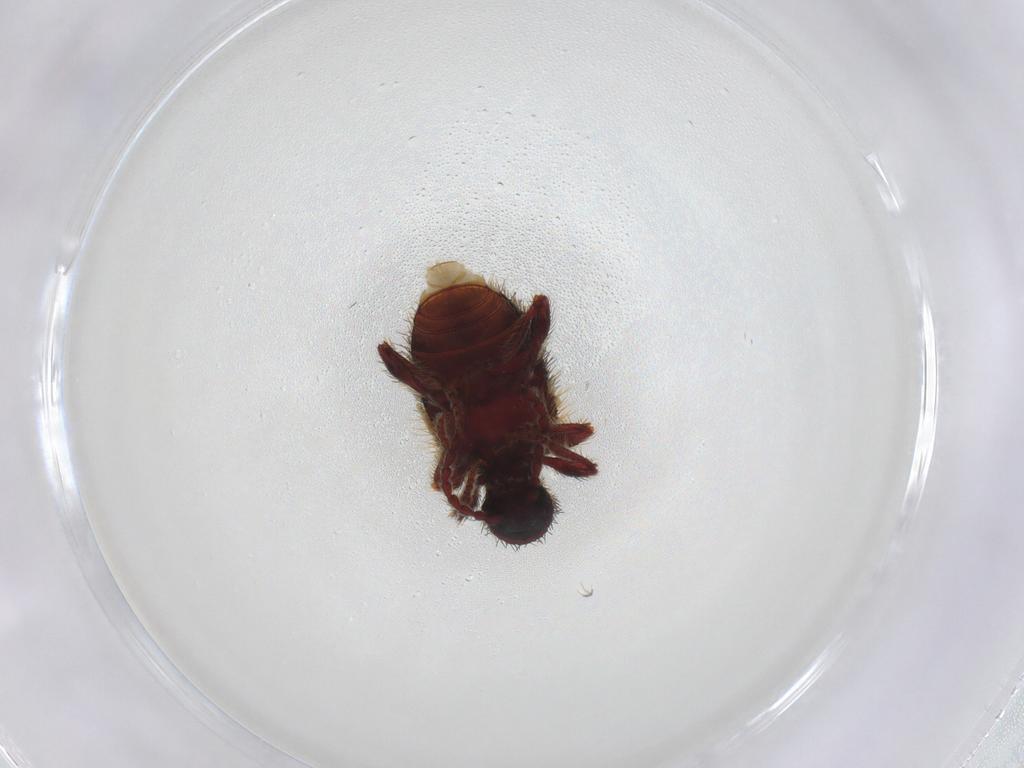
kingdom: Animalia
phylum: Arthropoda
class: Insecta
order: Coleoptera
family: Ptinidae
